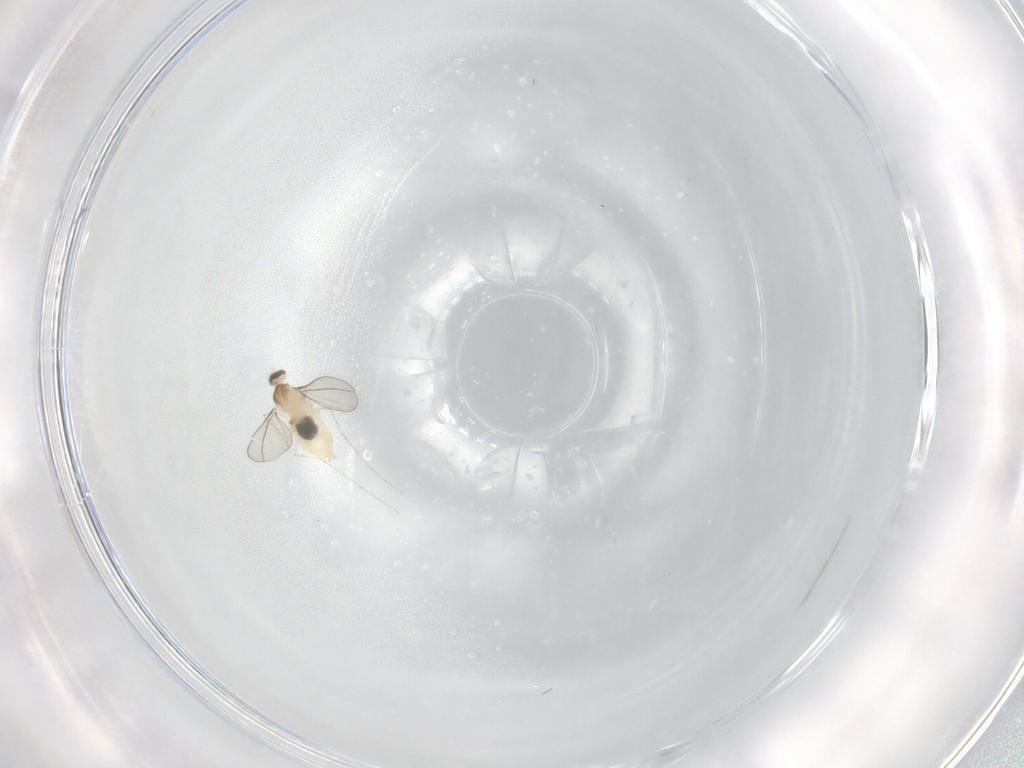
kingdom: Animalia
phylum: Arthropoda
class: Insecta
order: Diptera
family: Cecidomyiidae
